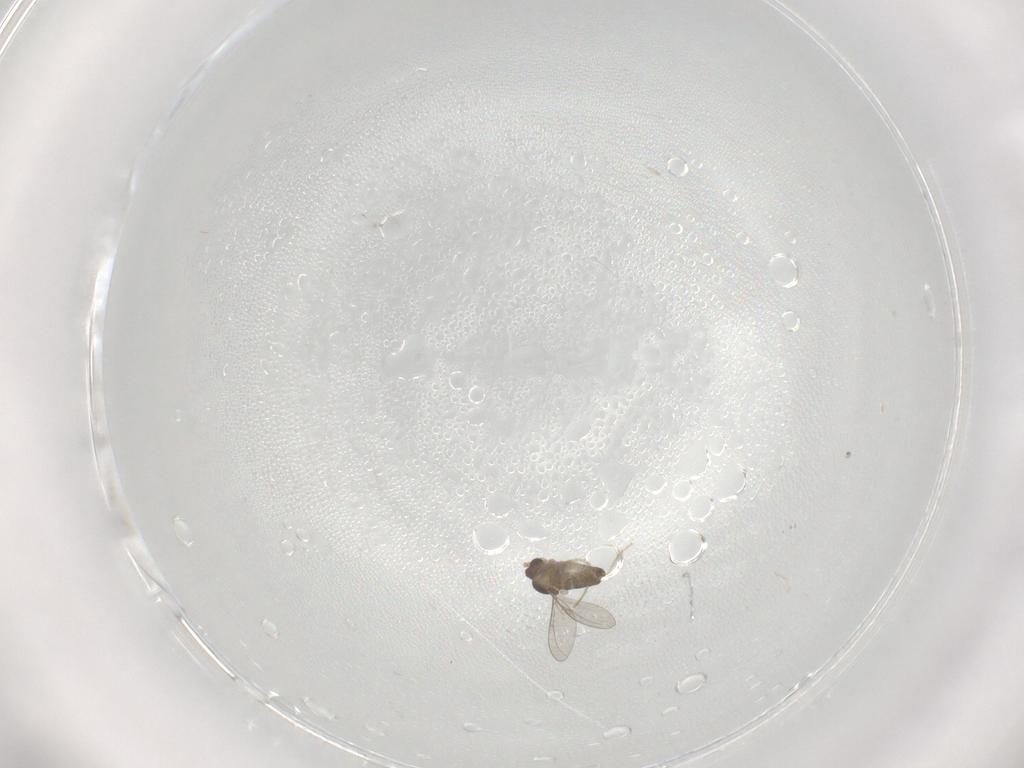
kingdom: Animalia
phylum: Arthropoda
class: Insecta
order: Diptera
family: Cecidomyiidae
